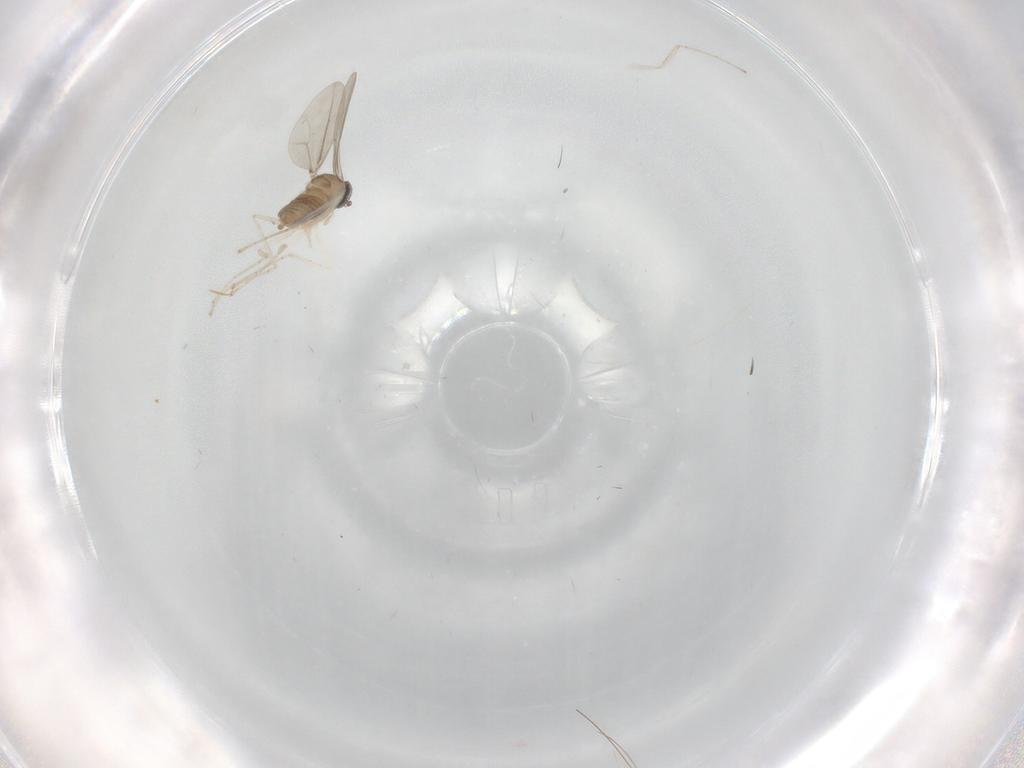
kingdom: Animalia
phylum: Arthropoda
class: Insecta
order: Diptera
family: Cecidomyiidae
